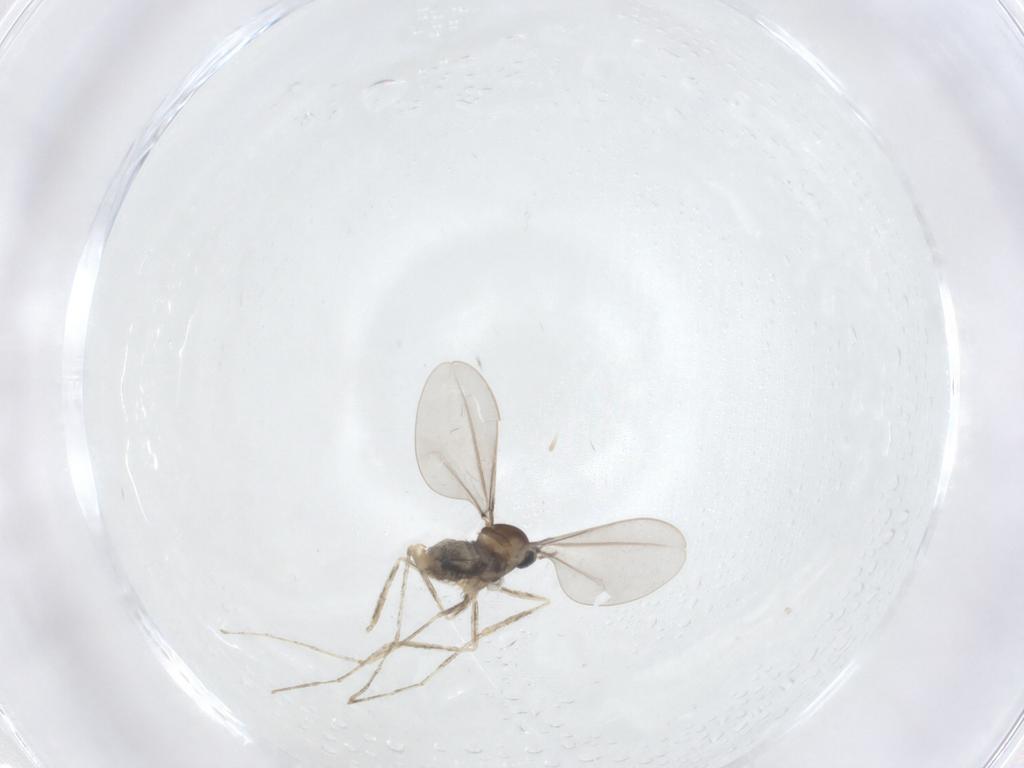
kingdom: Animalia
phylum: Arthropoda
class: Insecta
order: Diptera
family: Cecidomyiidae
